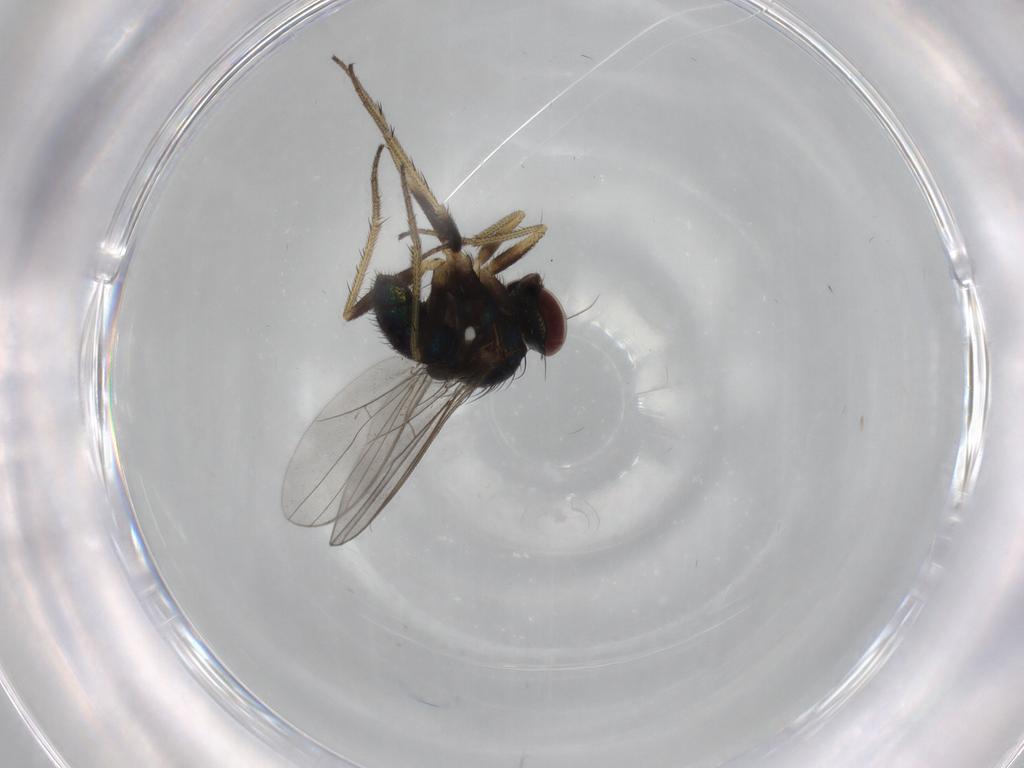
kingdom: Animalia
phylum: Arthropoda
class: Insecta
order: Diptera
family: Dolichopodidae
